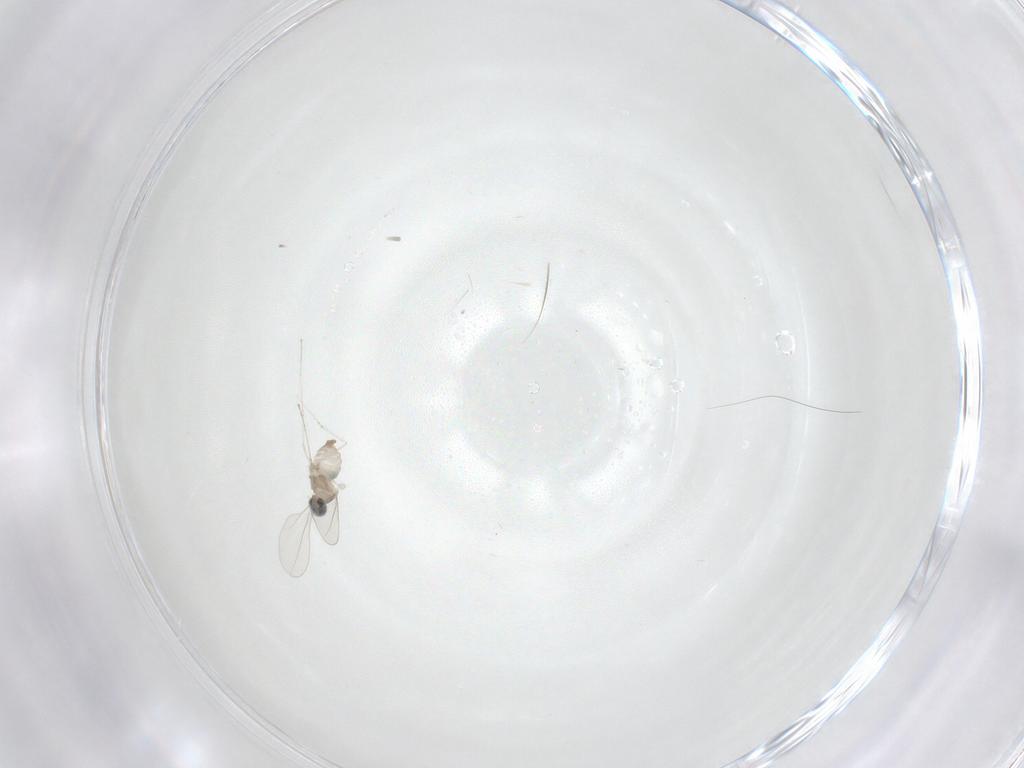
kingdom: Animalia
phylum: Arthropoda
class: Insecta
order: Diptera
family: Cecidomyiidae
